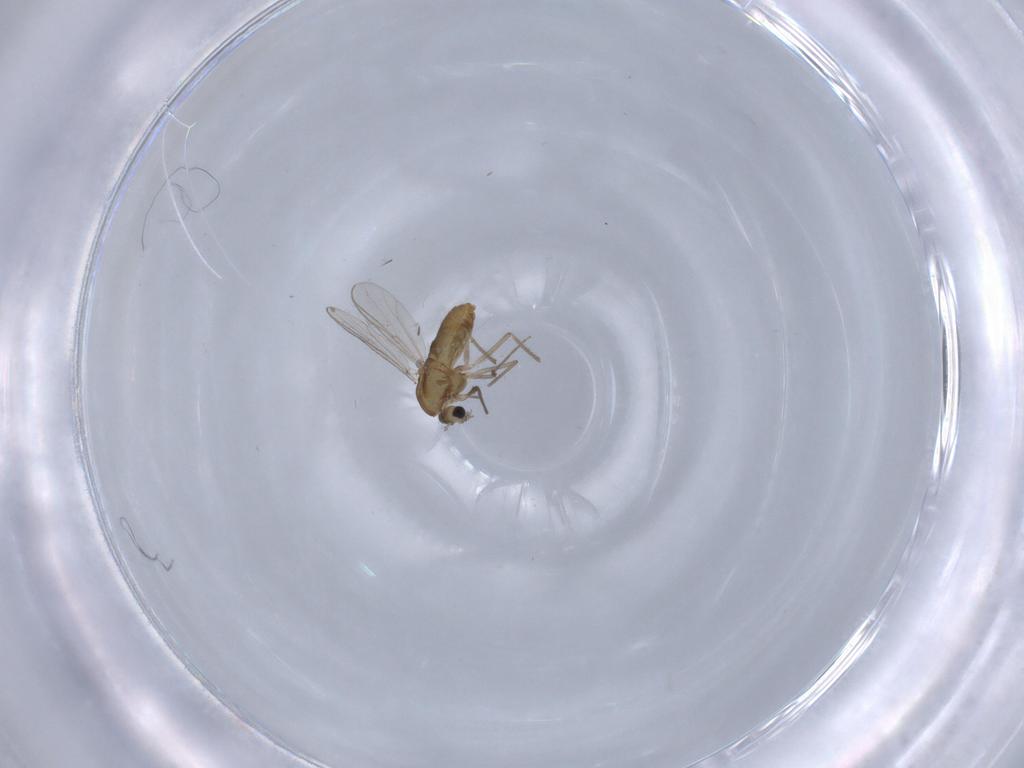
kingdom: Animalia
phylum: Arthropoda
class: Insecta
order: Diptera
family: Chironomidae
